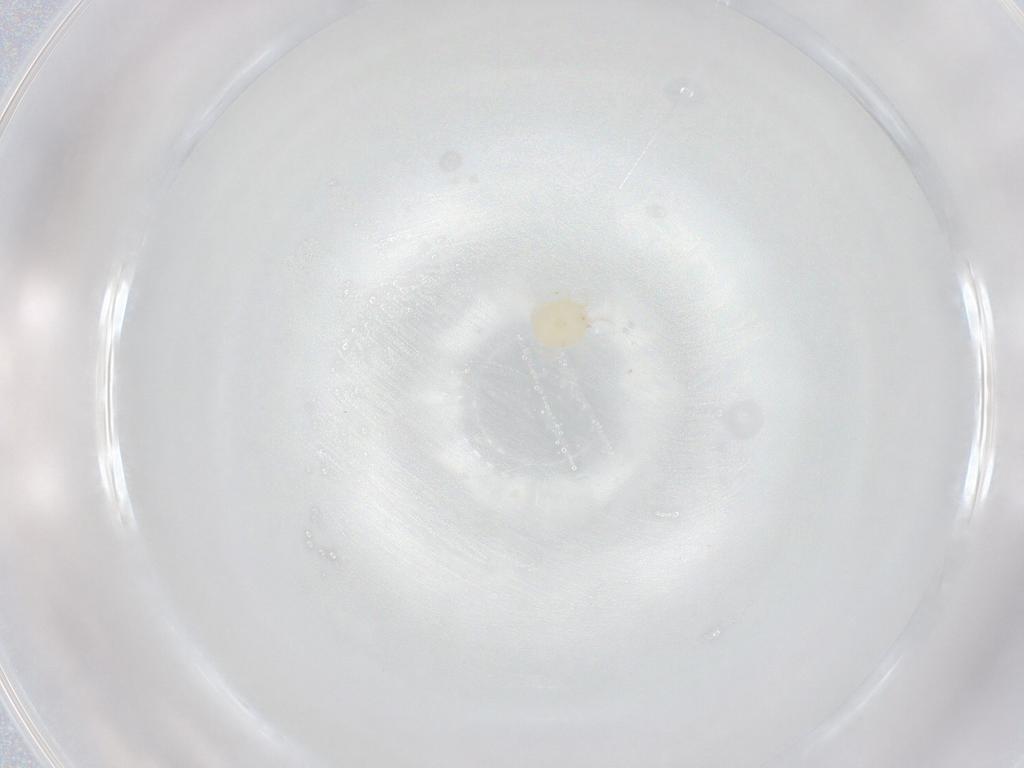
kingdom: Animalia
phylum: Arthropoda
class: Arachnida
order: Trombidiformes
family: Hydryphantidae
